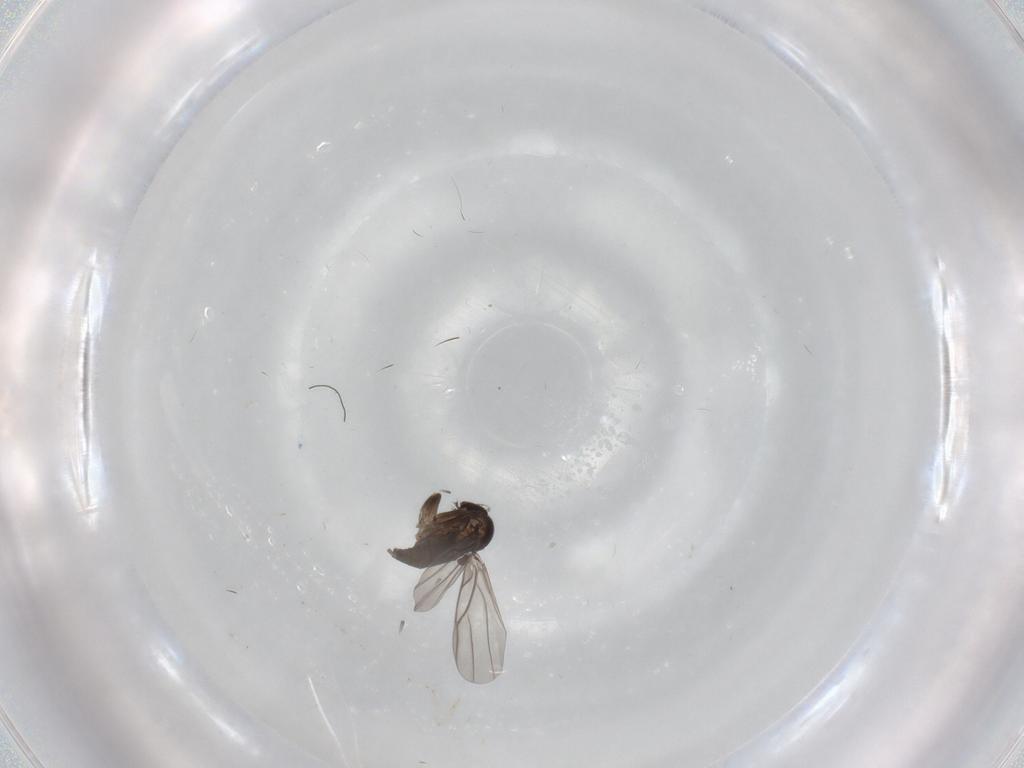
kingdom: Animalia
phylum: Arthropoda
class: Insecta
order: Diptera
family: Phoridae
